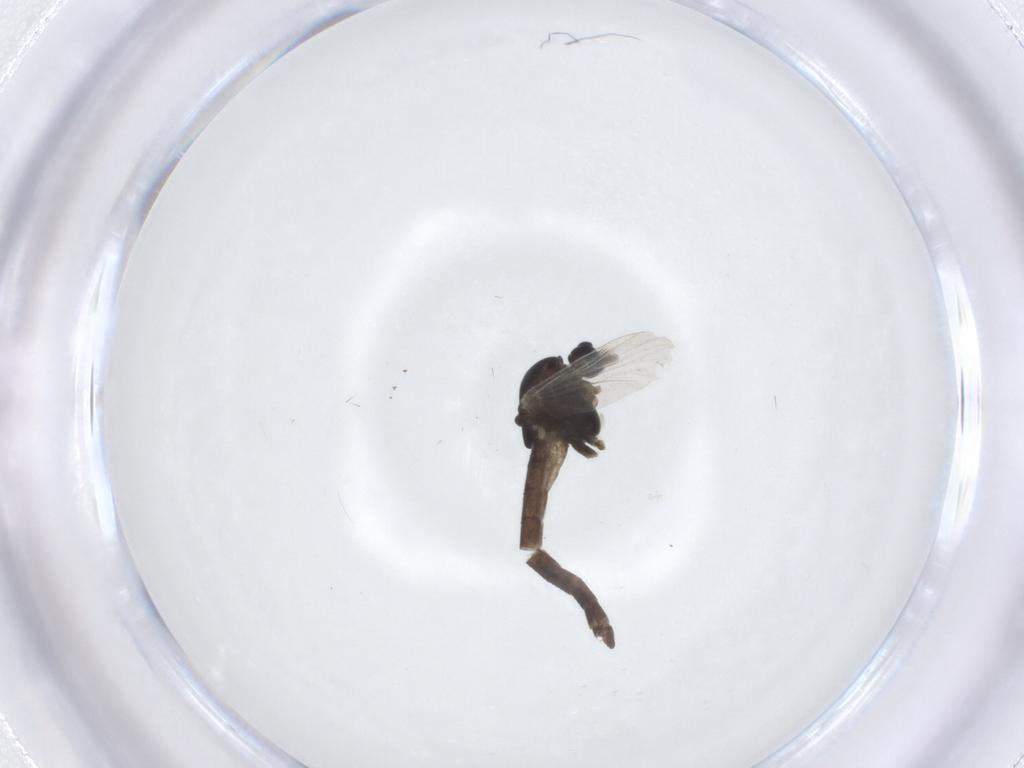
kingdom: Animalia
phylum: Arthropoda
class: Insecta
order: Diptera
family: Chironomidae
